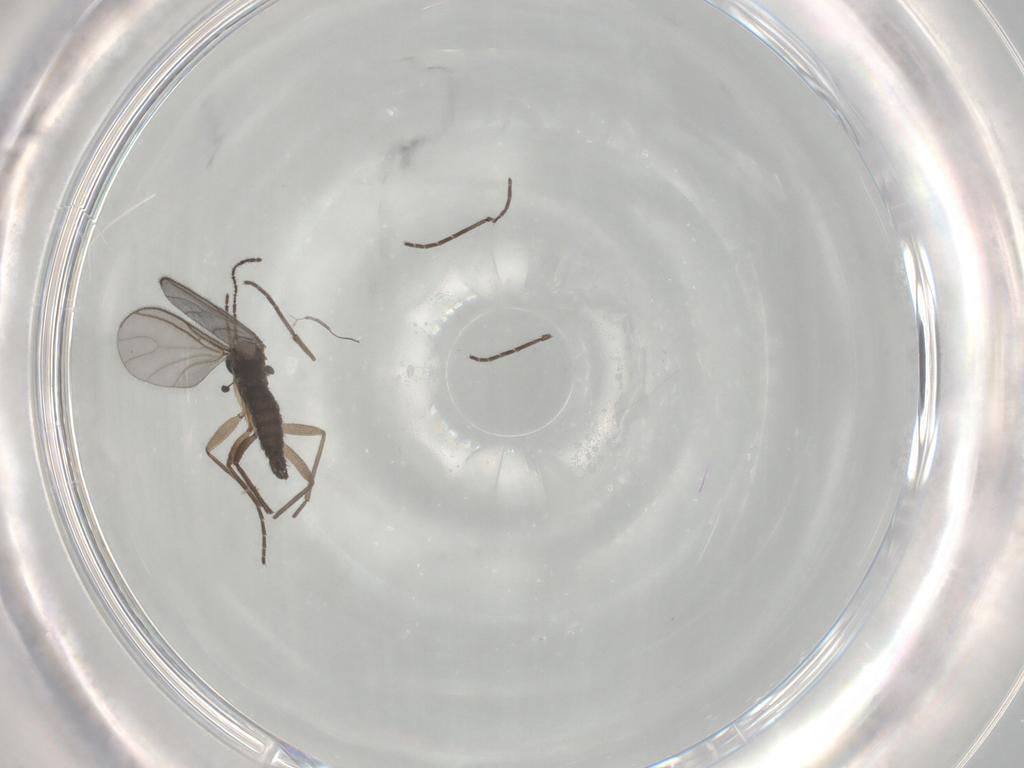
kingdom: Animalia
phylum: Arthropoda
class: Insecta
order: Diptera
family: Sciaridae
